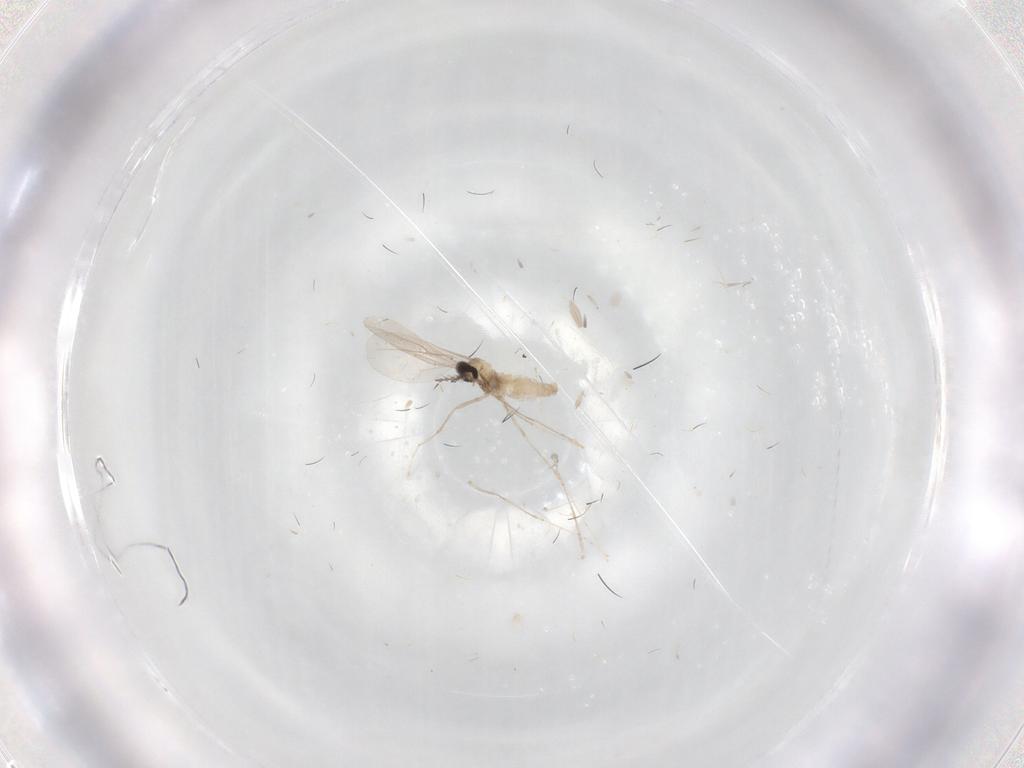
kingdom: Animalia
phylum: Arthropoda
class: Insecta
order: Diptera
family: Cecidomyiidae
